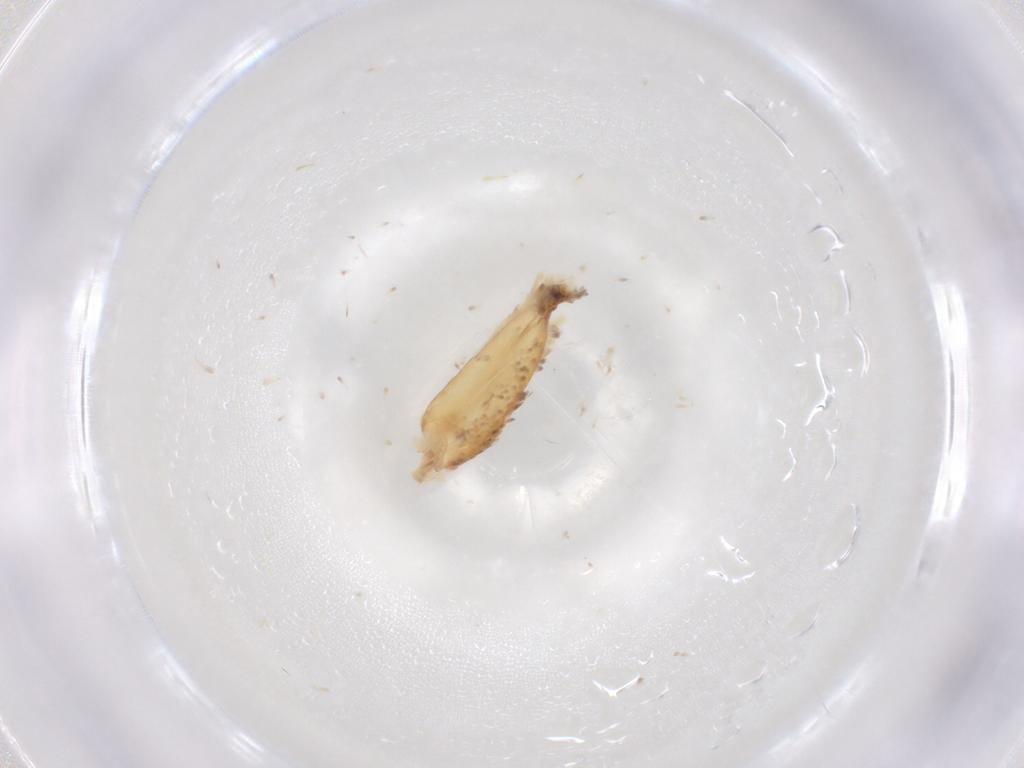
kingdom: Animalia
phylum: Arthropoda
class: Insecta
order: Lepidoptera
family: Geometridae
